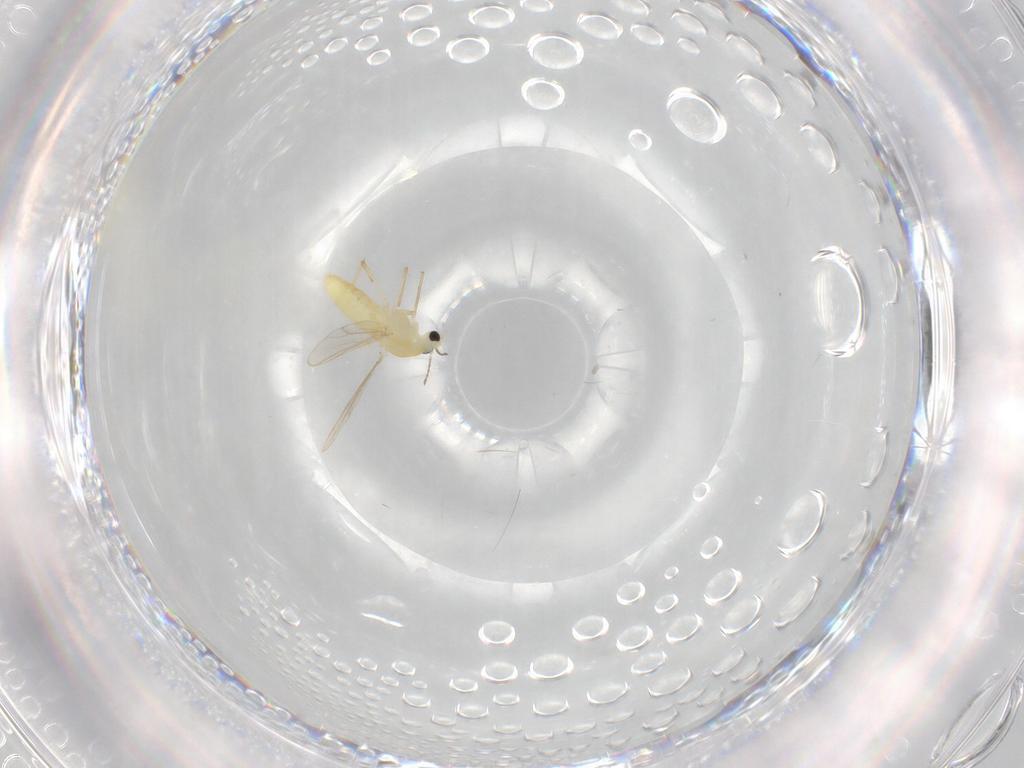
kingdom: Animalia
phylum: Arthropoda
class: Insecta
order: Diptera
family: Chironomidae
